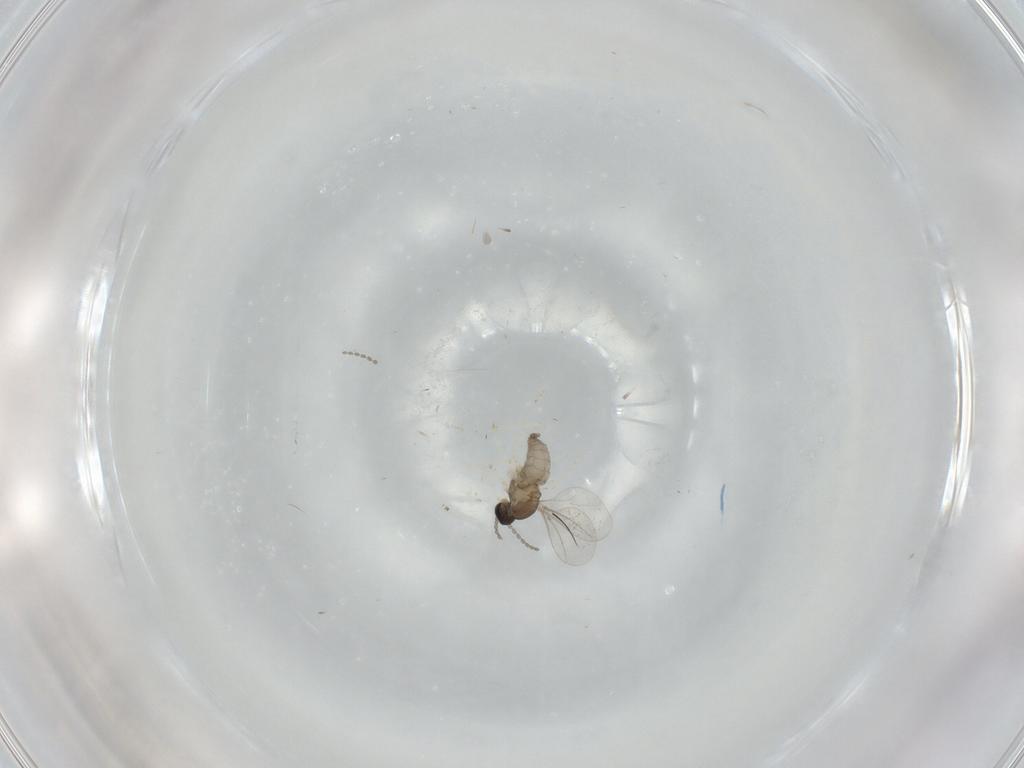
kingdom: Animalia
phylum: Arthropoda
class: Insecta
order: Diptera
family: Cecidomyiidae
